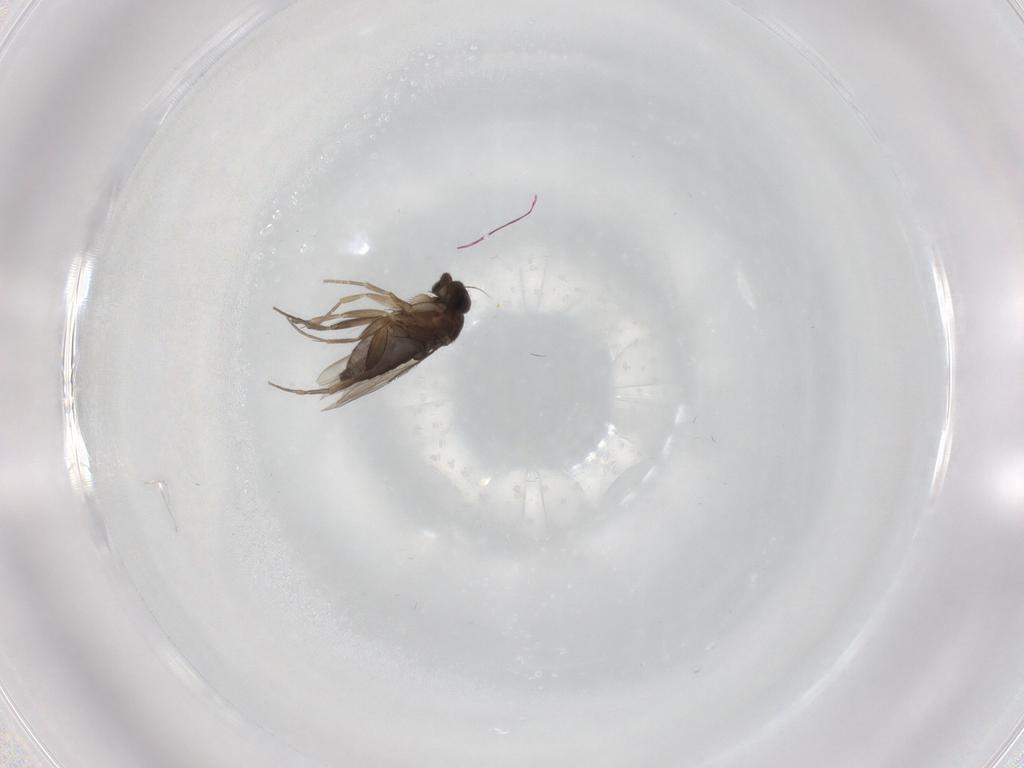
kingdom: Animalia
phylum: Arthropoda
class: Insecta
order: Diptera
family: Phoridae
